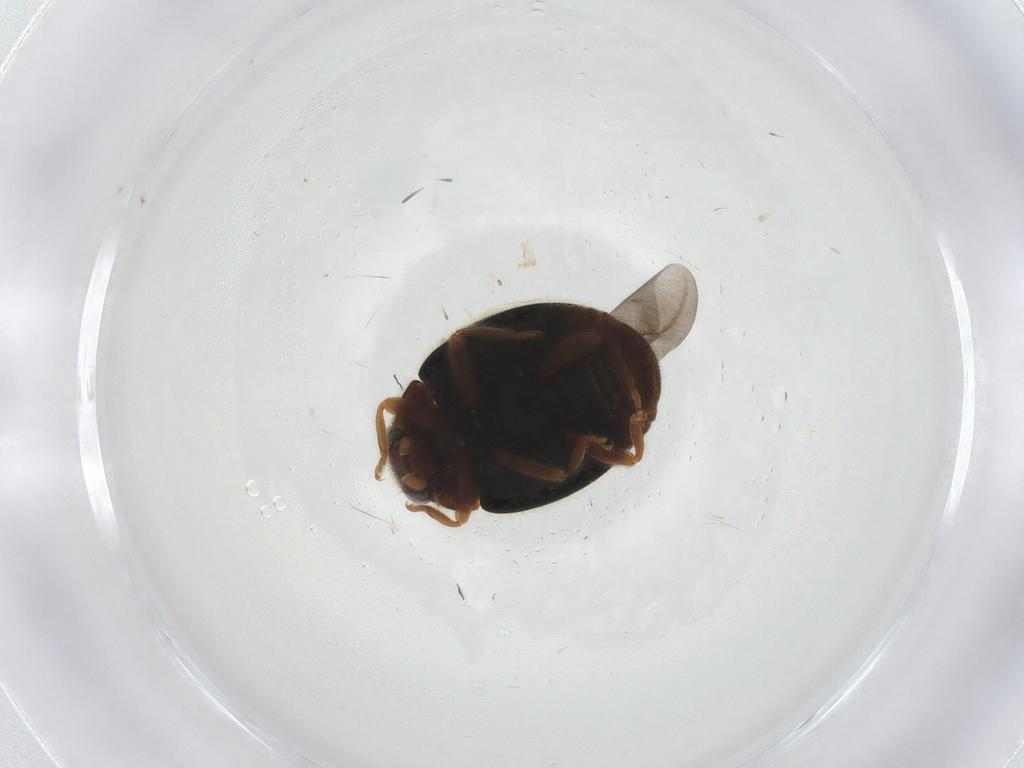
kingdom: Animalia
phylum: Arthropoda
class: Insecta
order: Coleoptera
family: Coccinellidae
